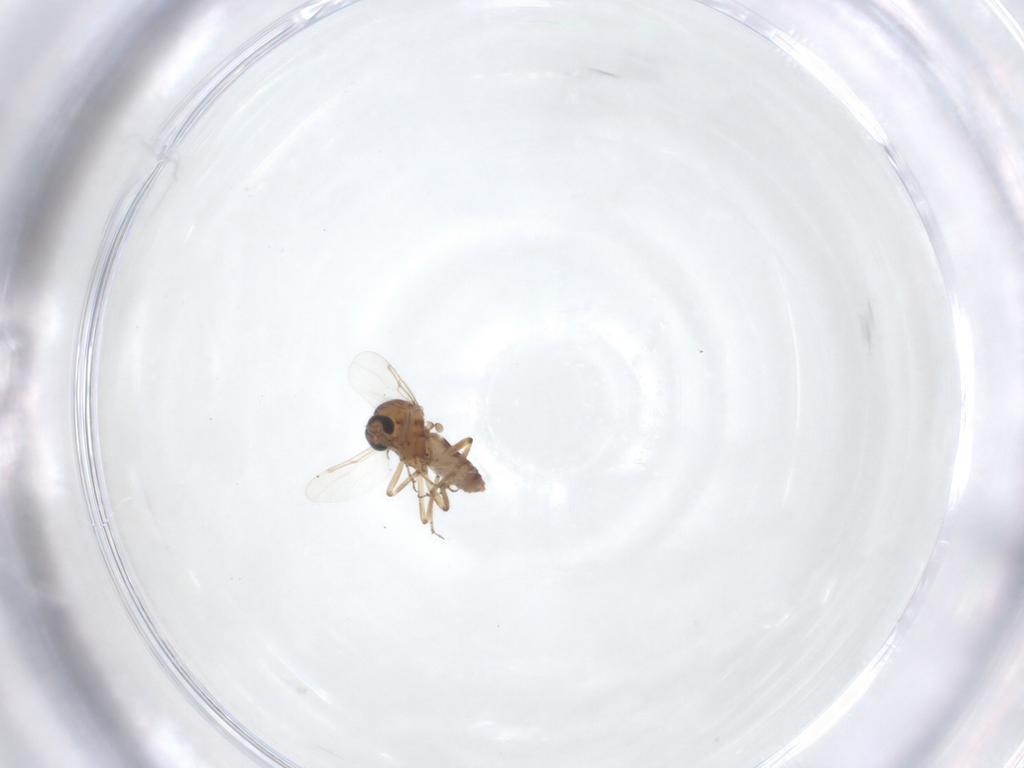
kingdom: Animalia
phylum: Arthropoda
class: Insecta
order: Diptera
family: Ceratopogonidae
